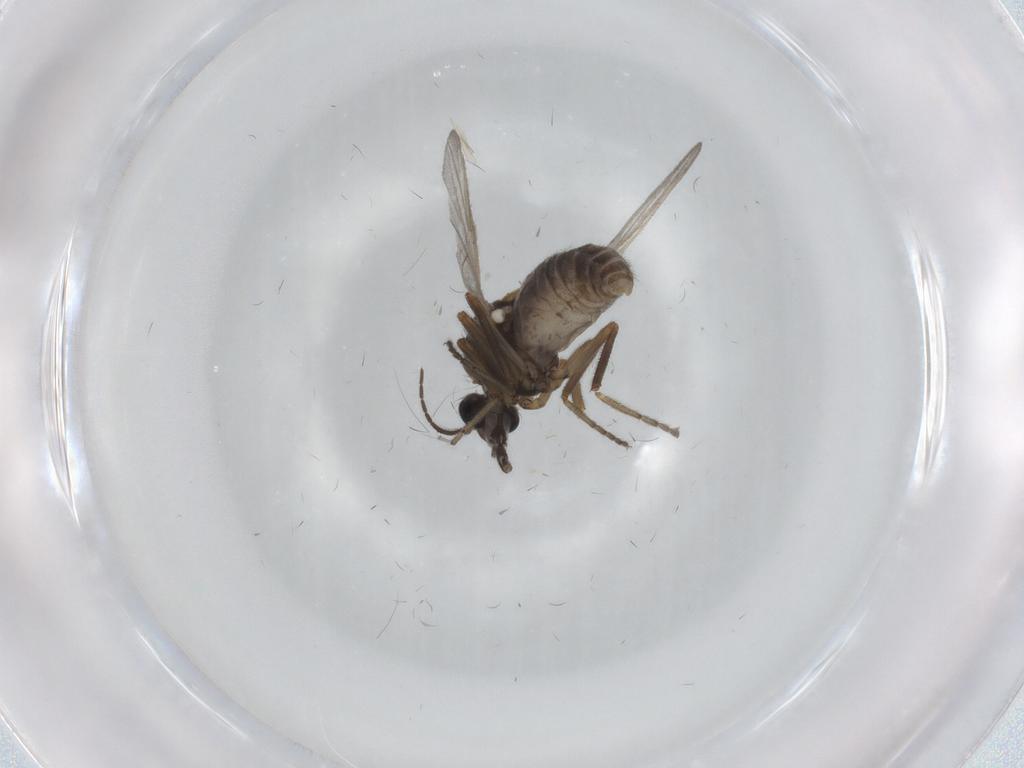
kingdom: Animalia
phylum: Arthropoda
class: Insecta
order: Diptera
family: Ceratopogonidae
